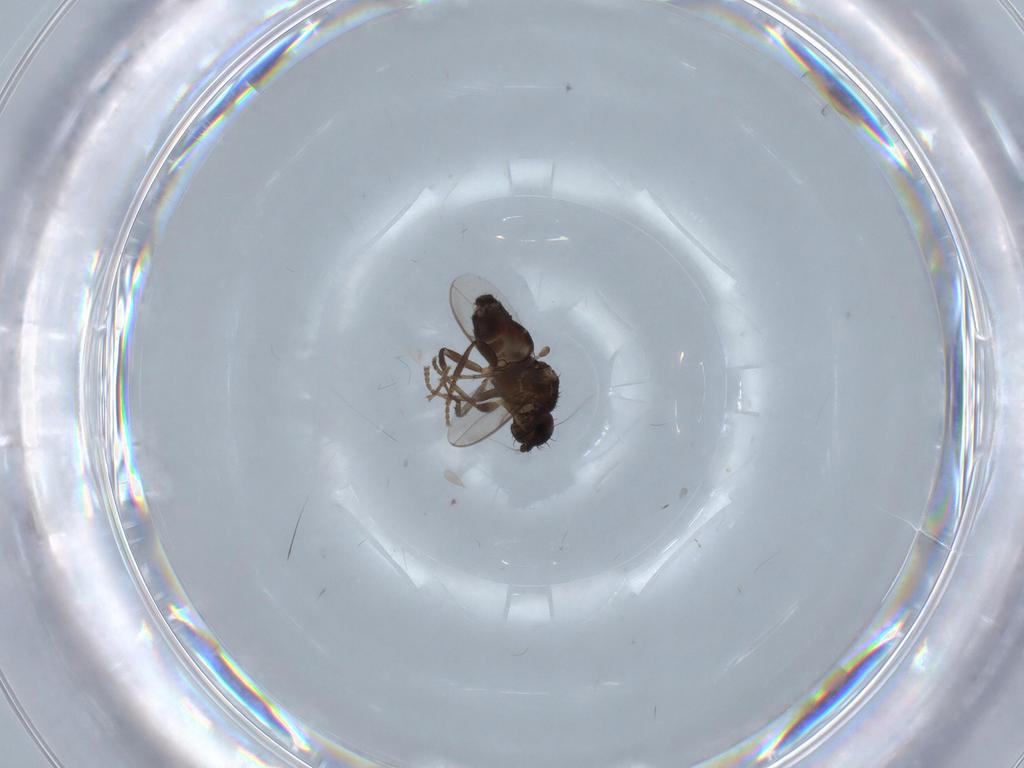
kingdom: Animalia
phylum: Arthropoda
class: Insecta
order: Diptera
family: Sphaeroceridae
